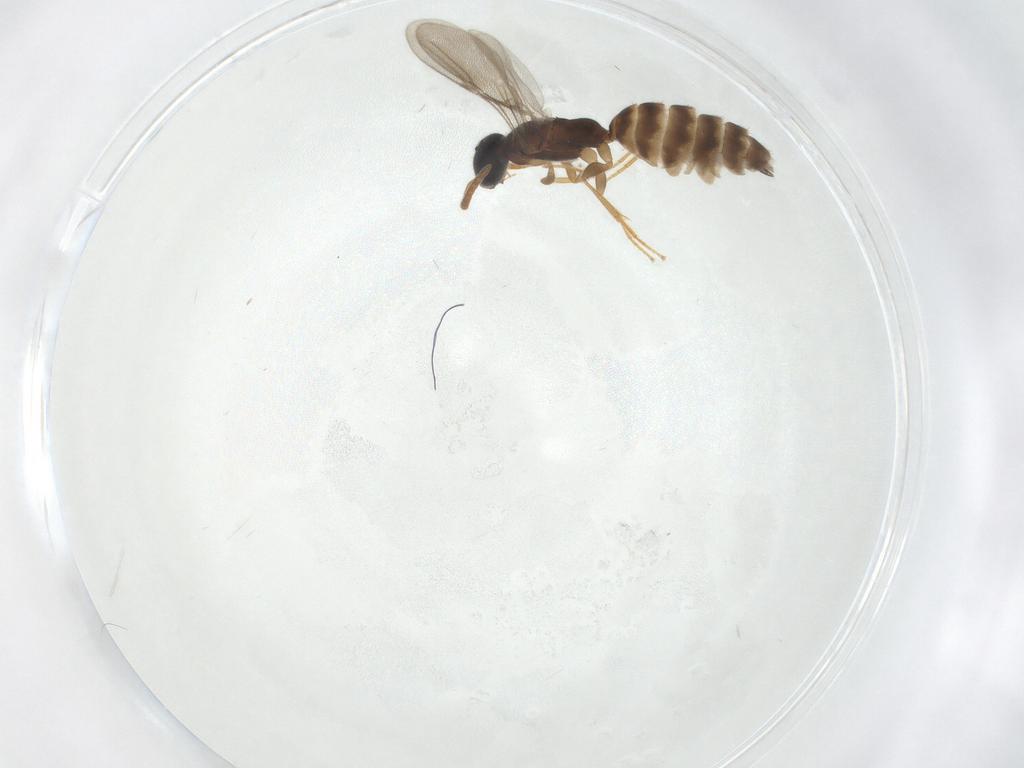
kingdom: Animalia
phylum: Arthropoda
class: Insecta
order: Hymenoptera
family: Bethylidae
